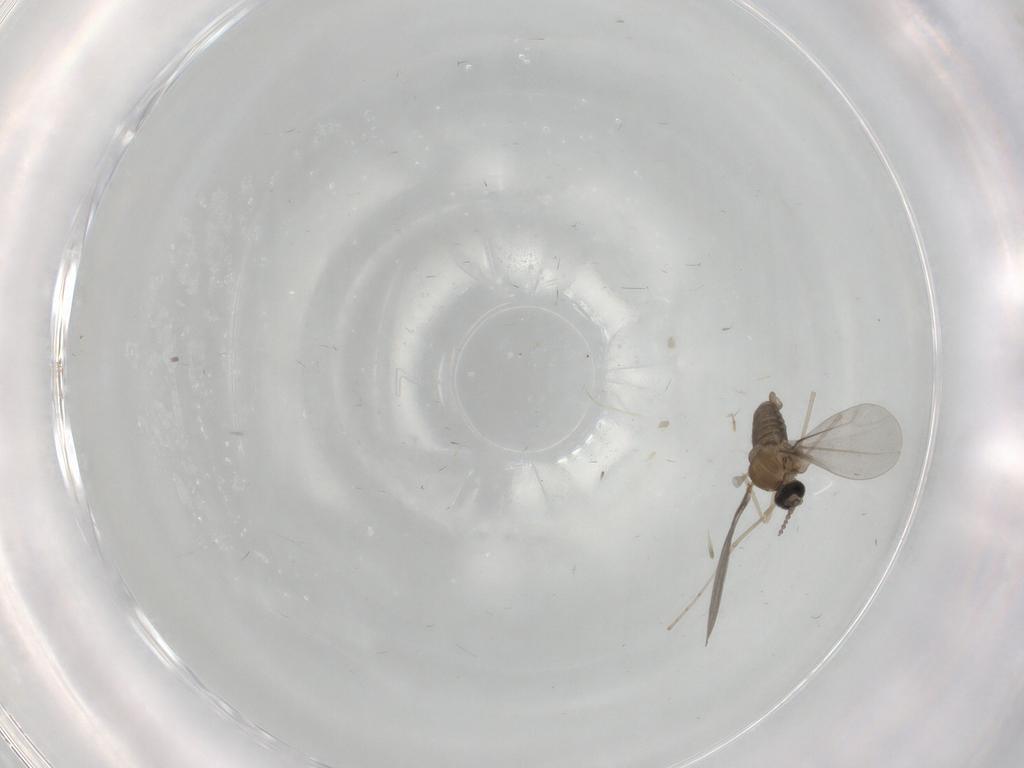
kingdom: Animalia
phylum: Arthropoda
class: Insecta
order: Diptera
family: Cecidomyiidae
